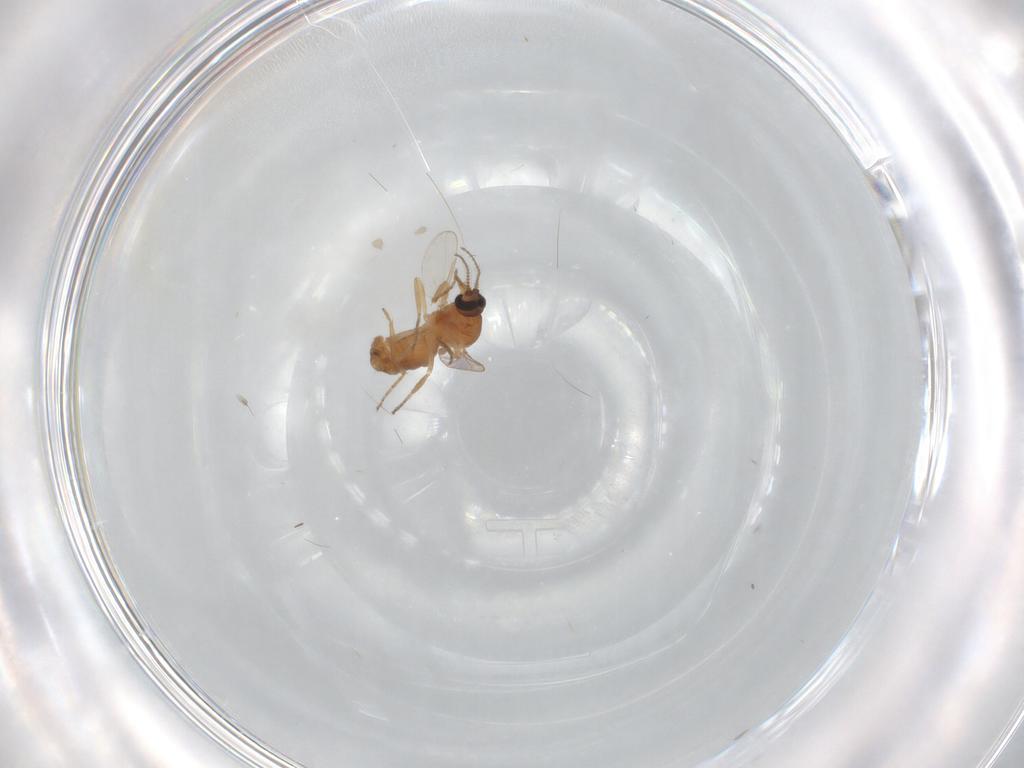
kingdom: Animalia
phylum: Arthropoda
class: Insecta
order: Diptera
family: Ceratopogonidae
